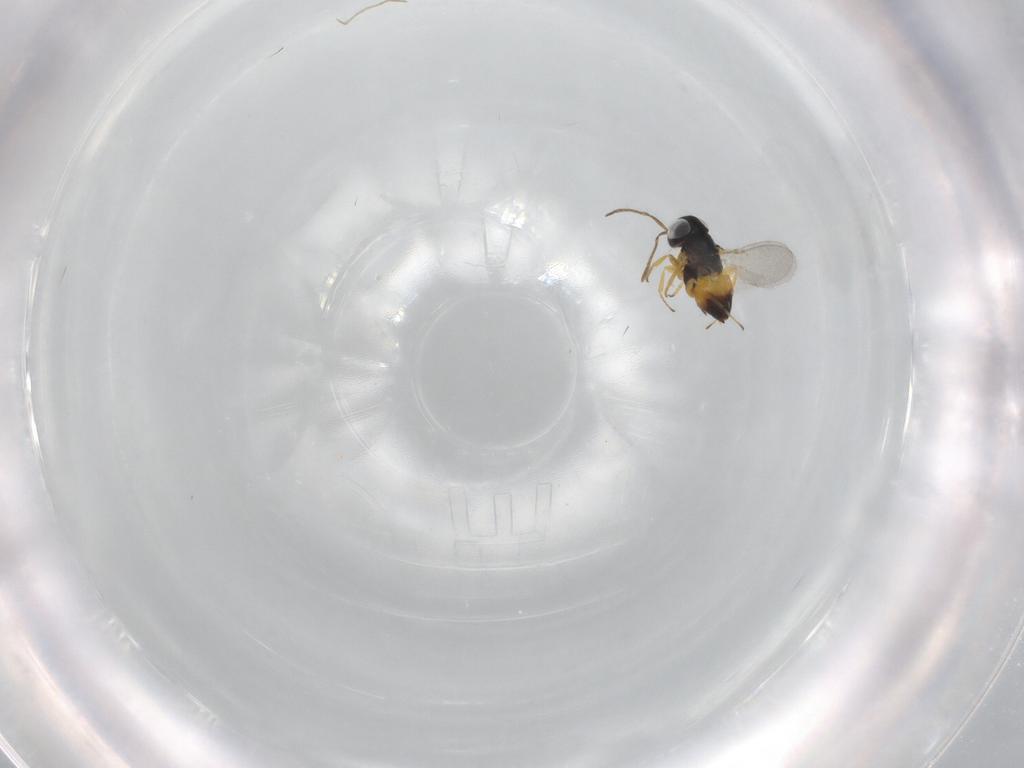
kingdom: Animalia
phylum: Arthropoda
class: Insecta
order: Hymenoptera
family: Encyrtidae
